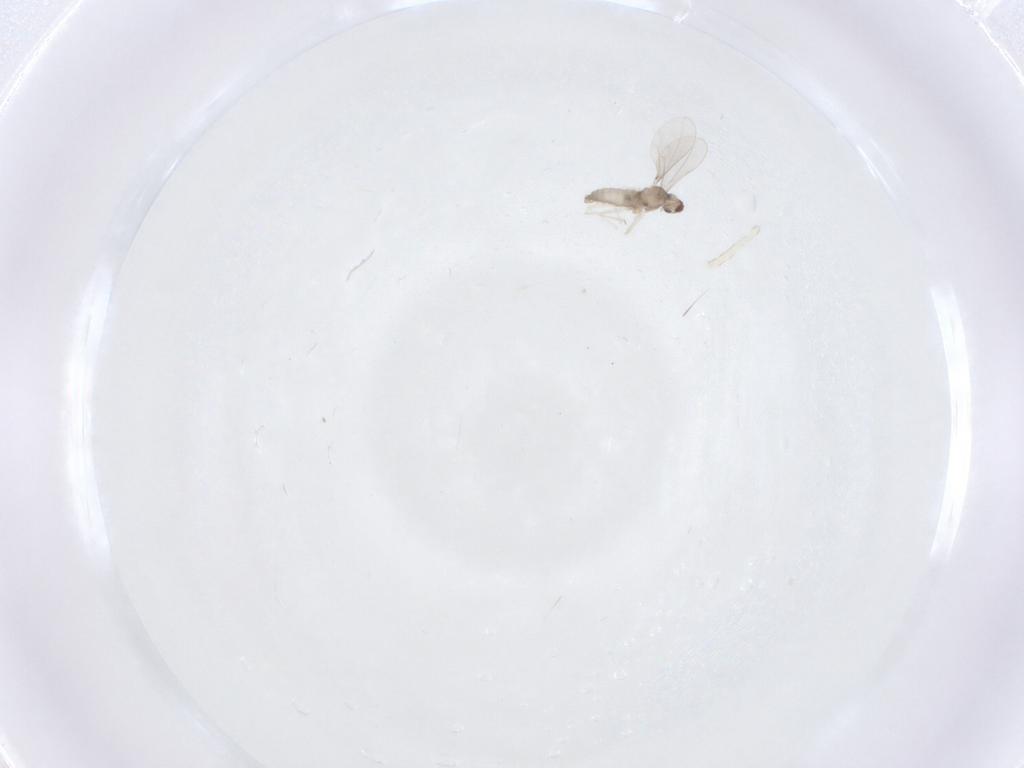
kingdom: Animalia
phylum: Arthropoda
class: Insecta
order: Diptera
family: Cecidomyiidae
